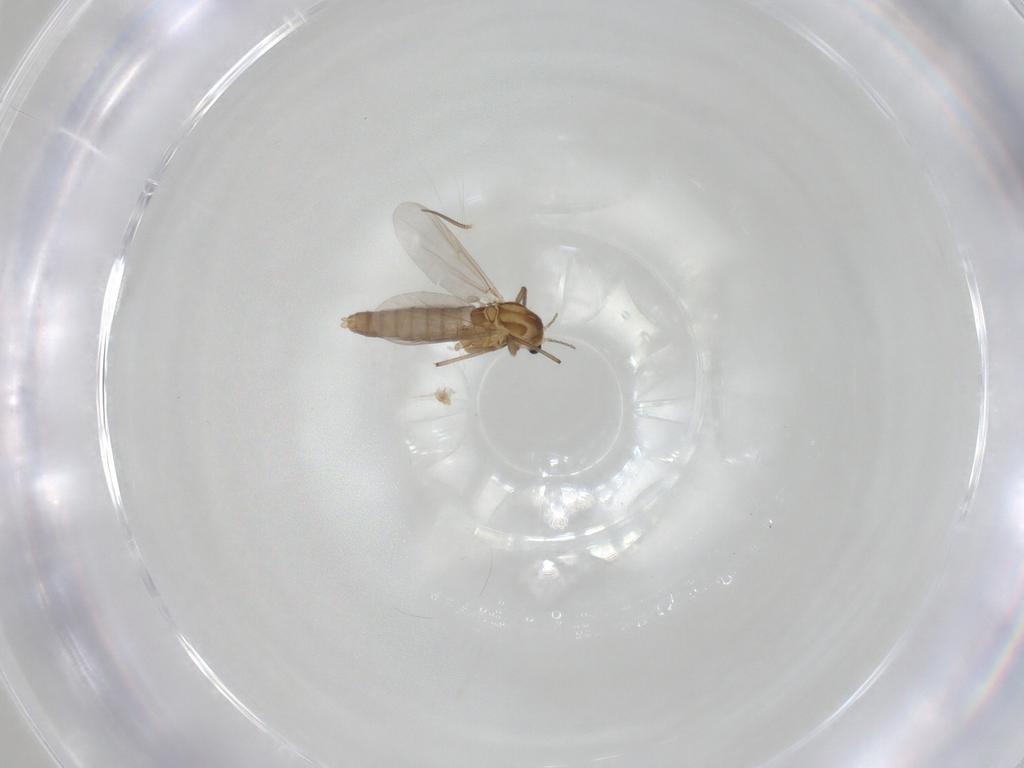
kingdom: Animalia
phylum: Arthropoda
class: Insecta
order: Diptera
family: Sciaridae
